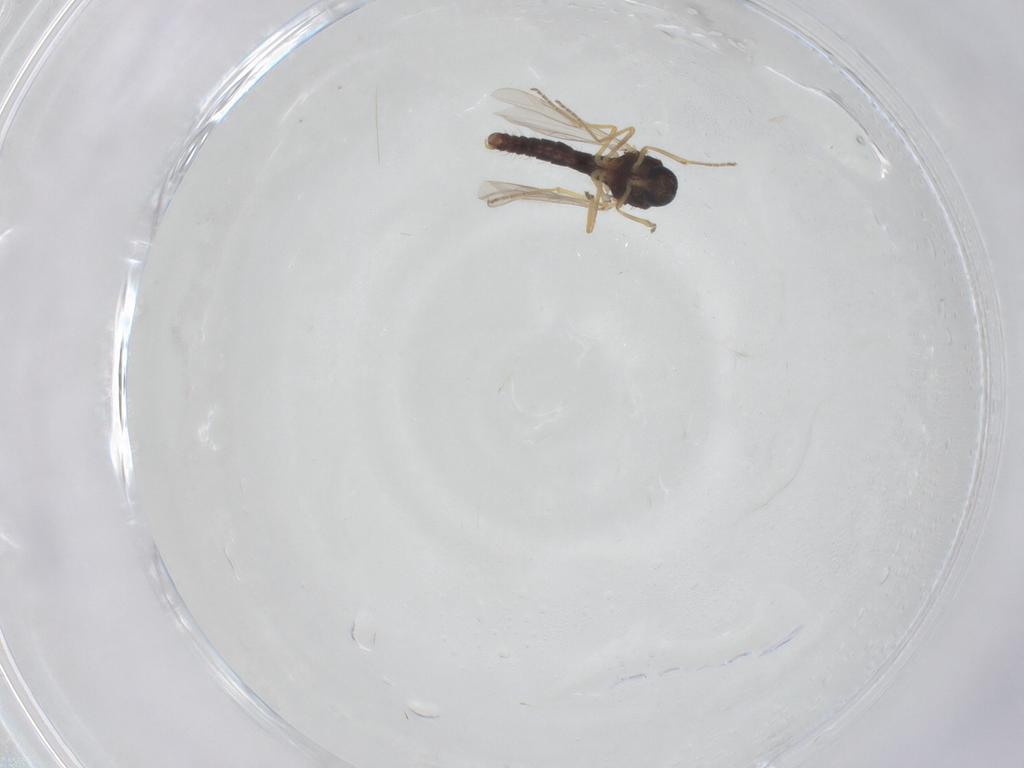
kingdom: Animalia
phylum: Arthropoda
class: Insecta
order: Diptera
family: Ceratopogonidae
